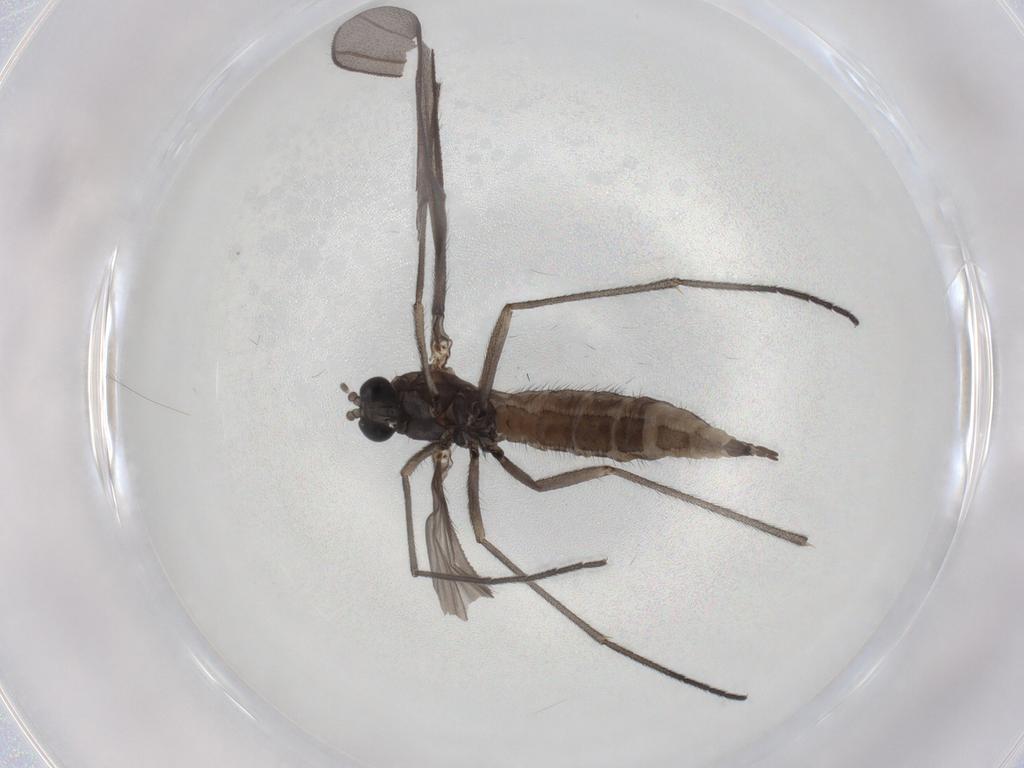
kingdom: Animalia
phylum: Arthropoda
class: Insecta
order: Diptera
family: Sciaridae
